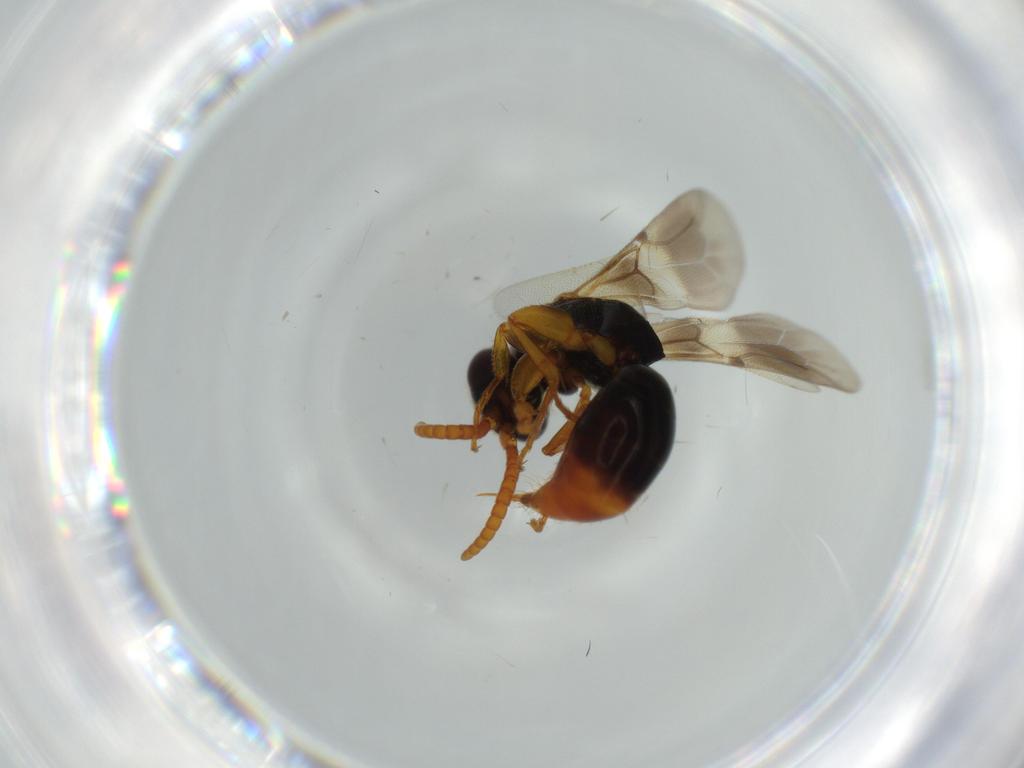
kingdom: Animalia
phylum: Arthropoda
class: Insecta
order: Hymenoptera
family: Bethylidae
